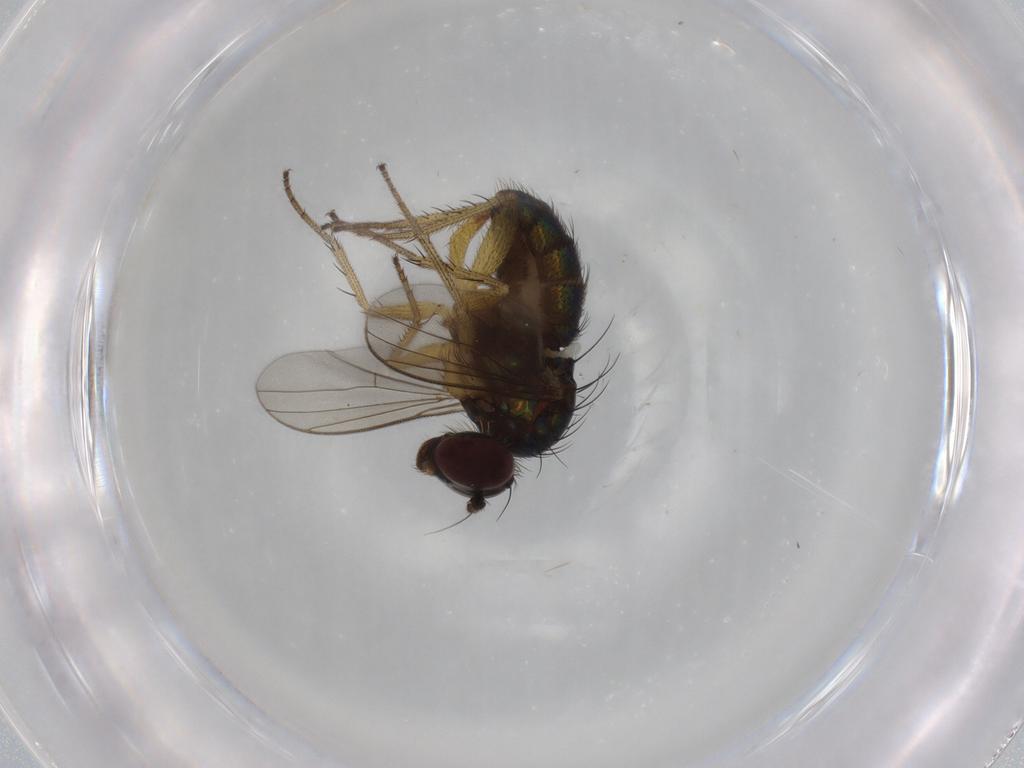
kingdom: Animalia
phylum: Arthropoda
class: Insecta
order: Diptera
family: Dolichopodidae
